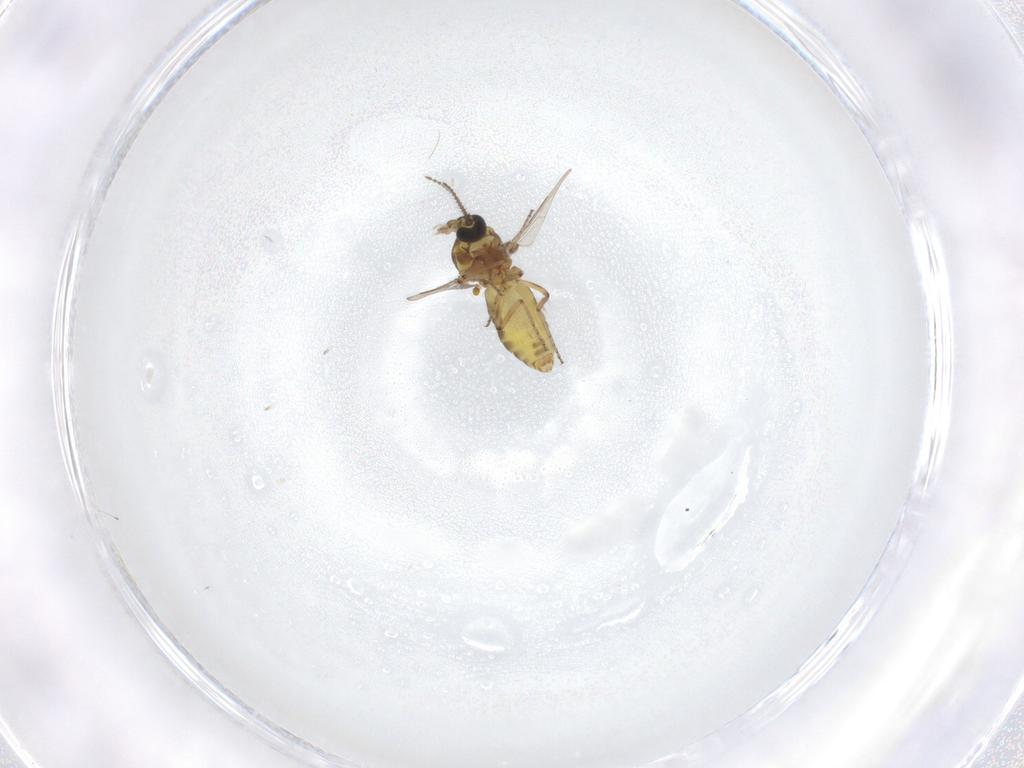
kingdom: Animalia
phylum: Arthropoda
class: Insecta
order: Diptera
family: Ceratopogonidae
